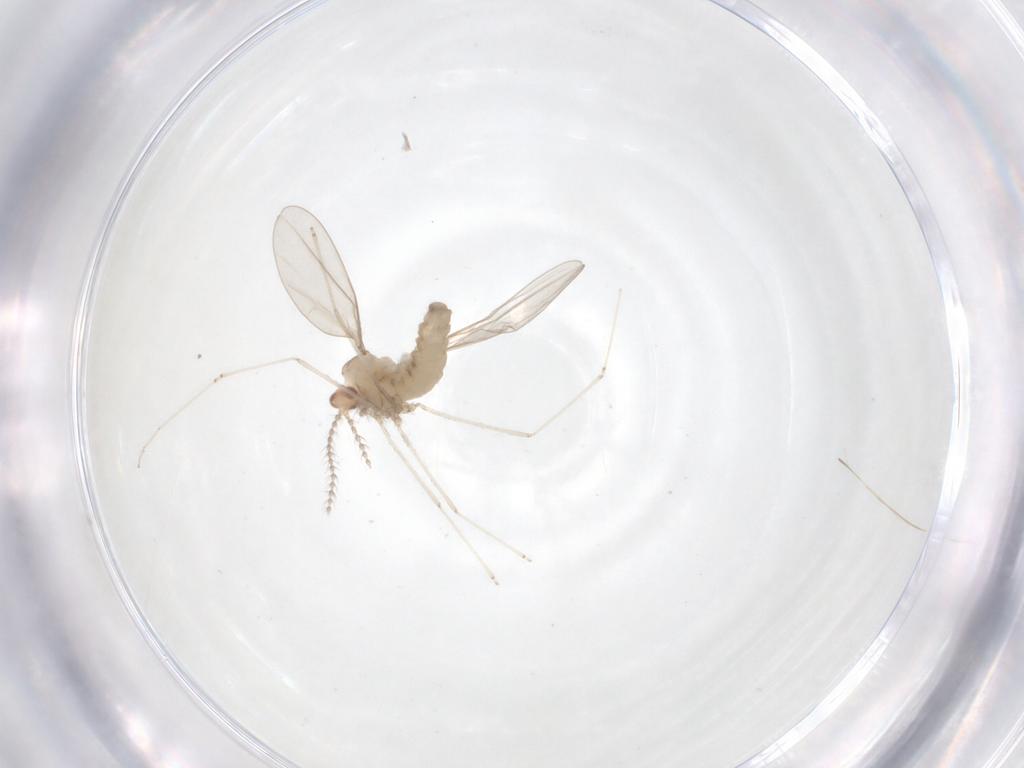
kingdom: Animalia
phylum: Arthropoda
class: Insecta
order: Diptera
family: Cecidomyiidae
